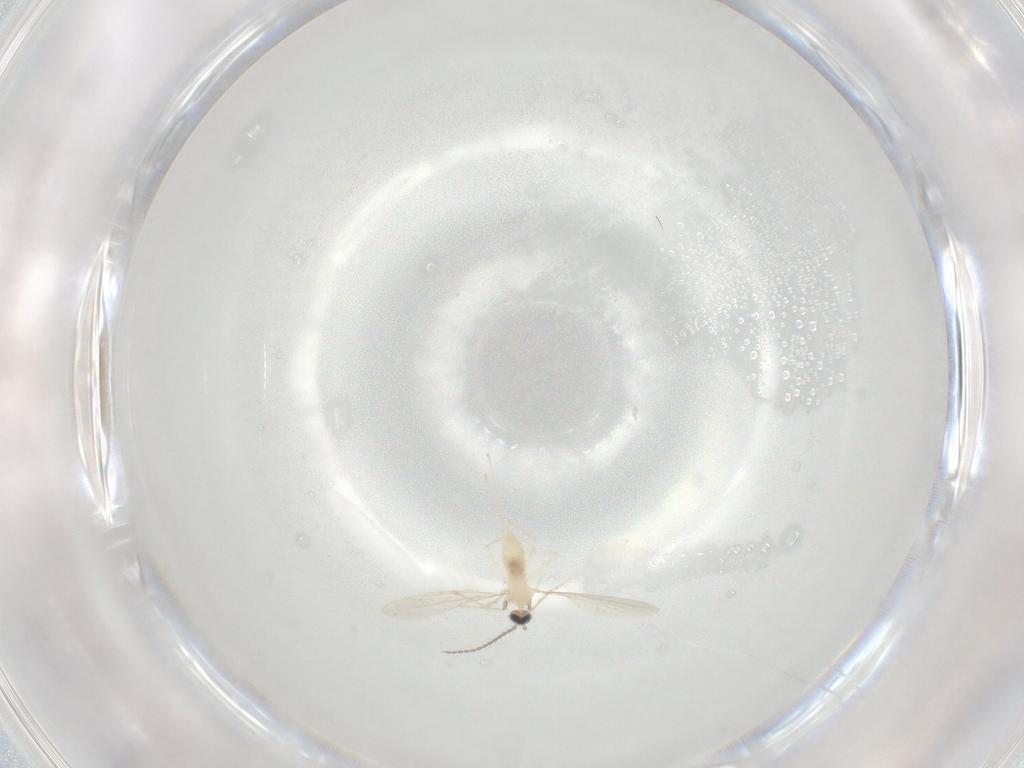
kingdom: Animalia
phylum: Arthropoda
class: Insecta
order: Diptera
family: Cecidomyiidae
